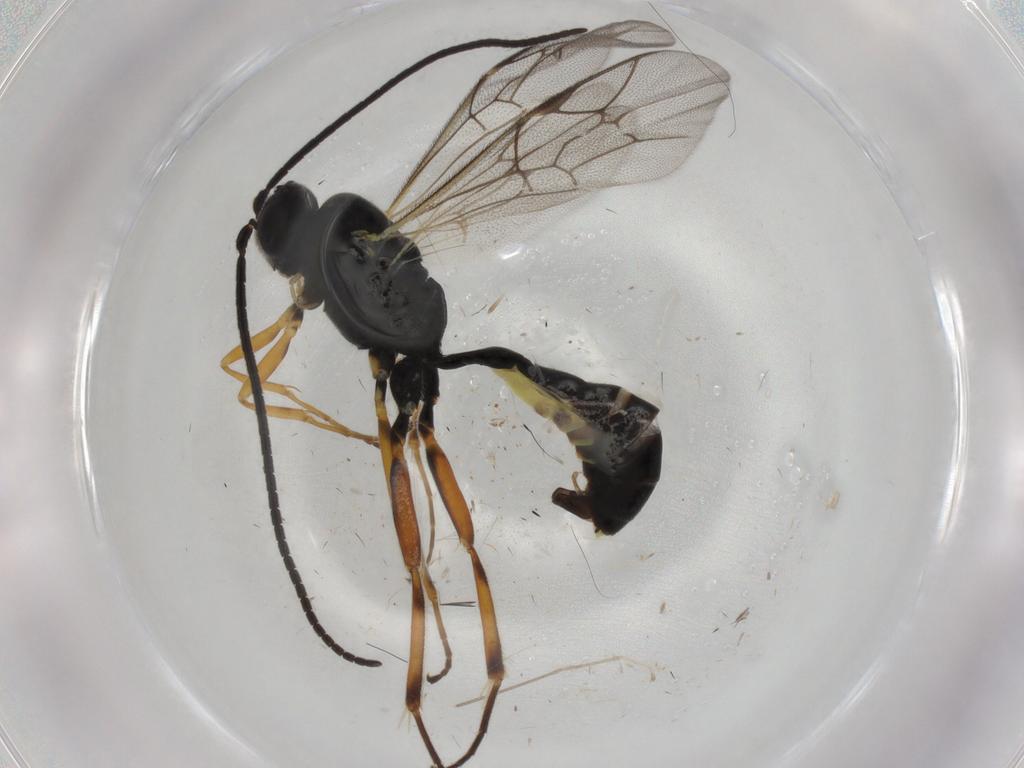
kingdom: Animalia
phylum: Arthropoda
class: Insecta
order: Hymenoptera
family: Ichneumonidae
